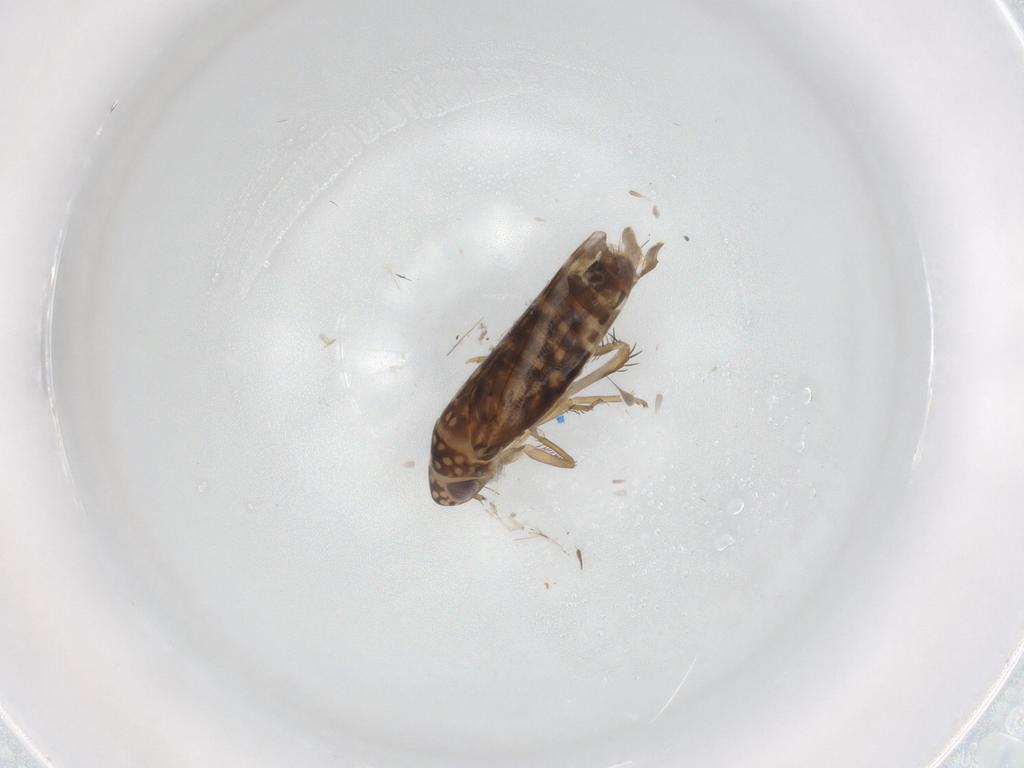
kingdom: Animalia
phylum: Arthropoda
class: Insecta
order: Hemiptera
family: Cicadellidae
